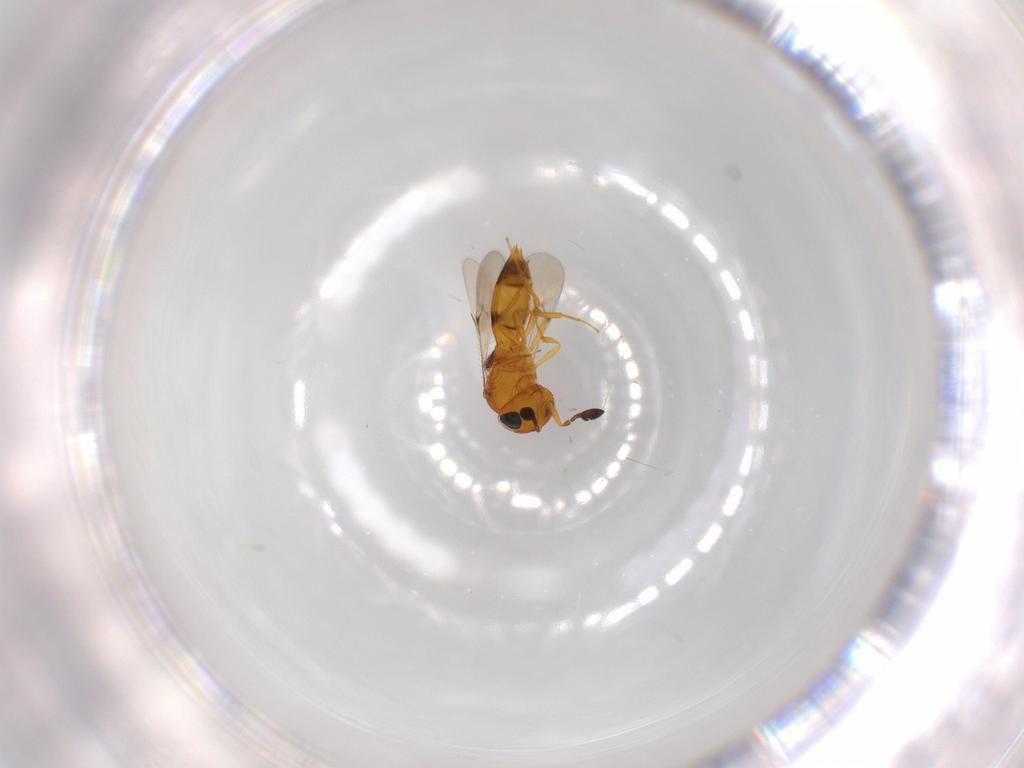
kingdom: Animalia
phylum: Arthropoda
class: Insecta
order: Hymenoptera
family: Scelionidae
